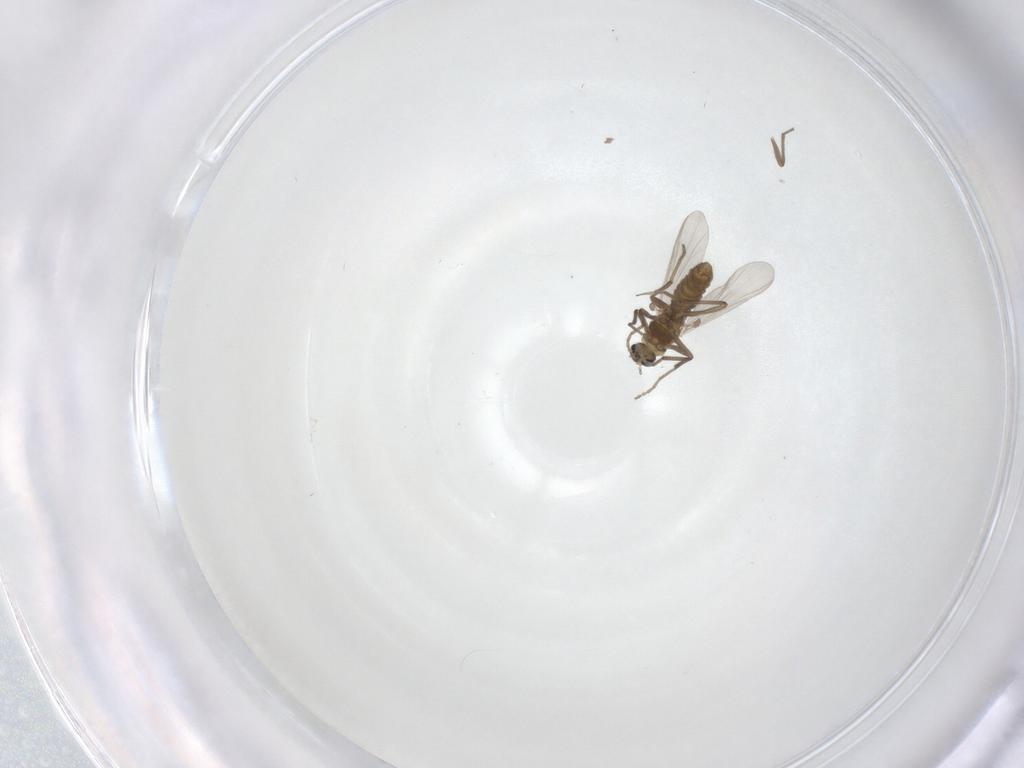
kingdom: Animalia
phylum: Arthropoda
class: Insecta
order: Diptera
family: Chironomidae
